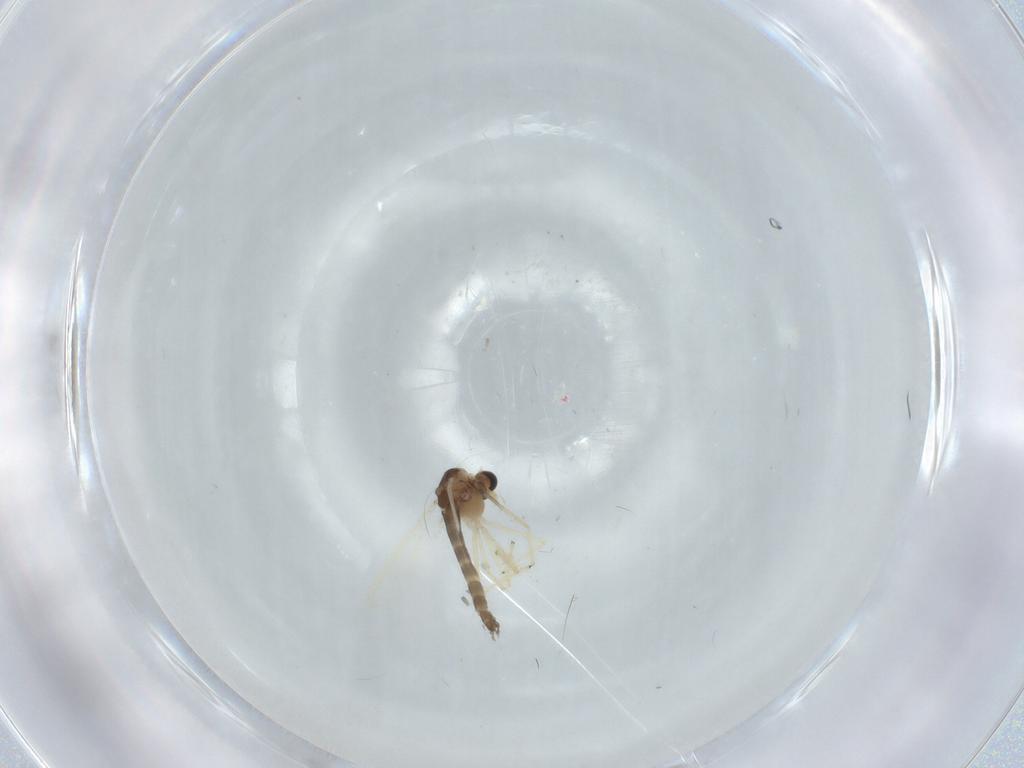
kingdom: Animalia
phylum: Arthropoda
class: Insecta
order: Diptera
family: Chironomidae
